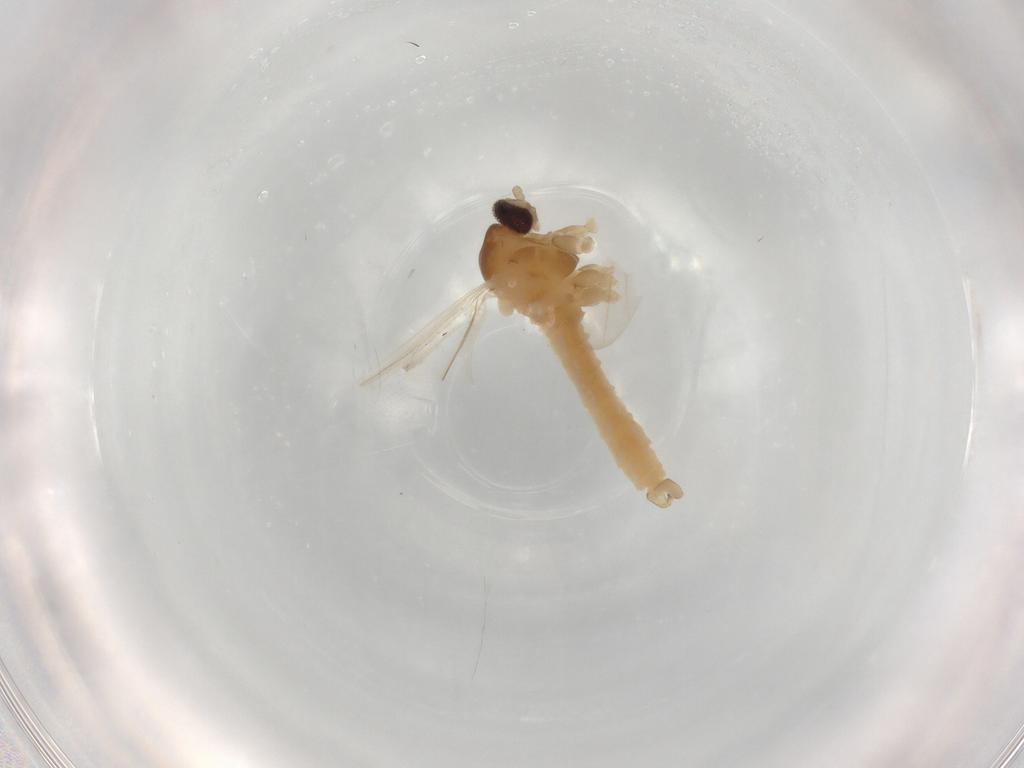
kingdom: Animalia
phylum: Arthropoda
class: Insecta
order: Diptera
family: Cecidomyiidae
